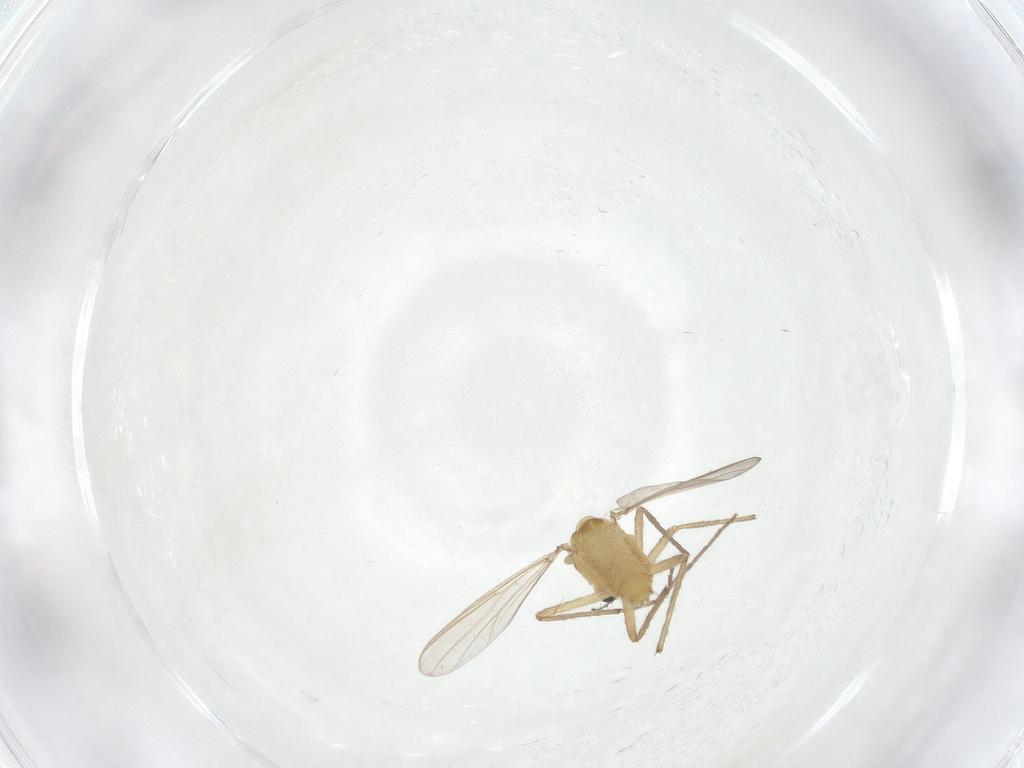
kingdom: Animalia
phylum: Arthropoda
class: Insecta
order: Diptera
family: Chironomidae
